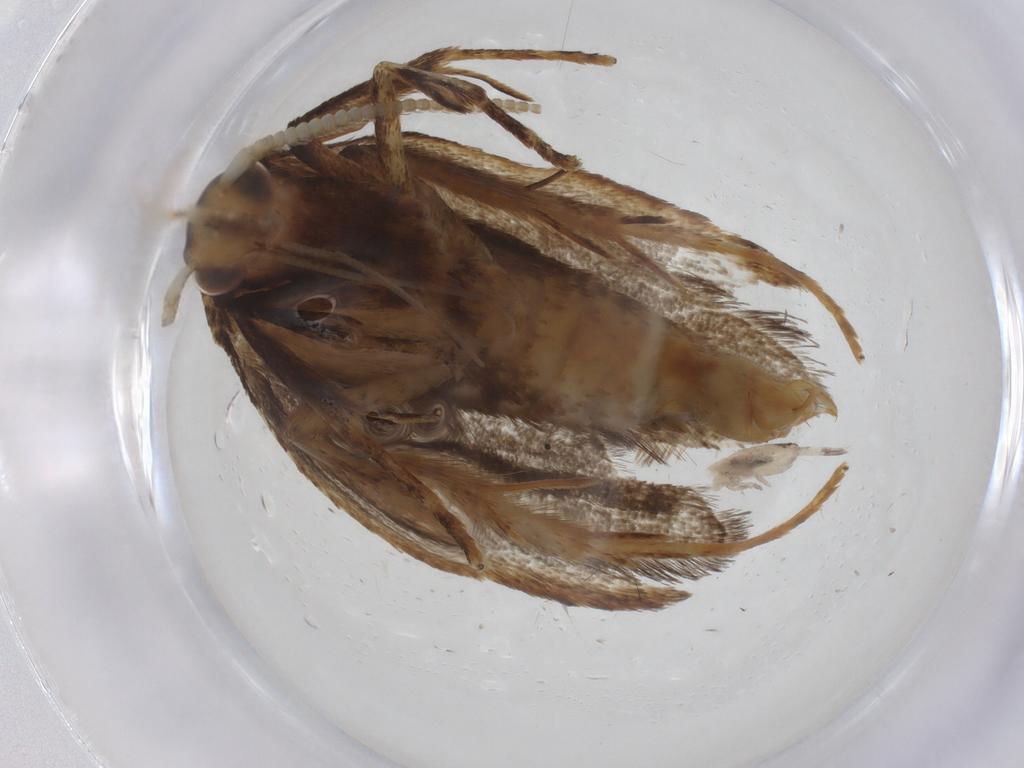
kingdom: Animalia
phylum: Arthropoda
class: Insecta
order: Lepidoptera
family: Lecithoceridae
